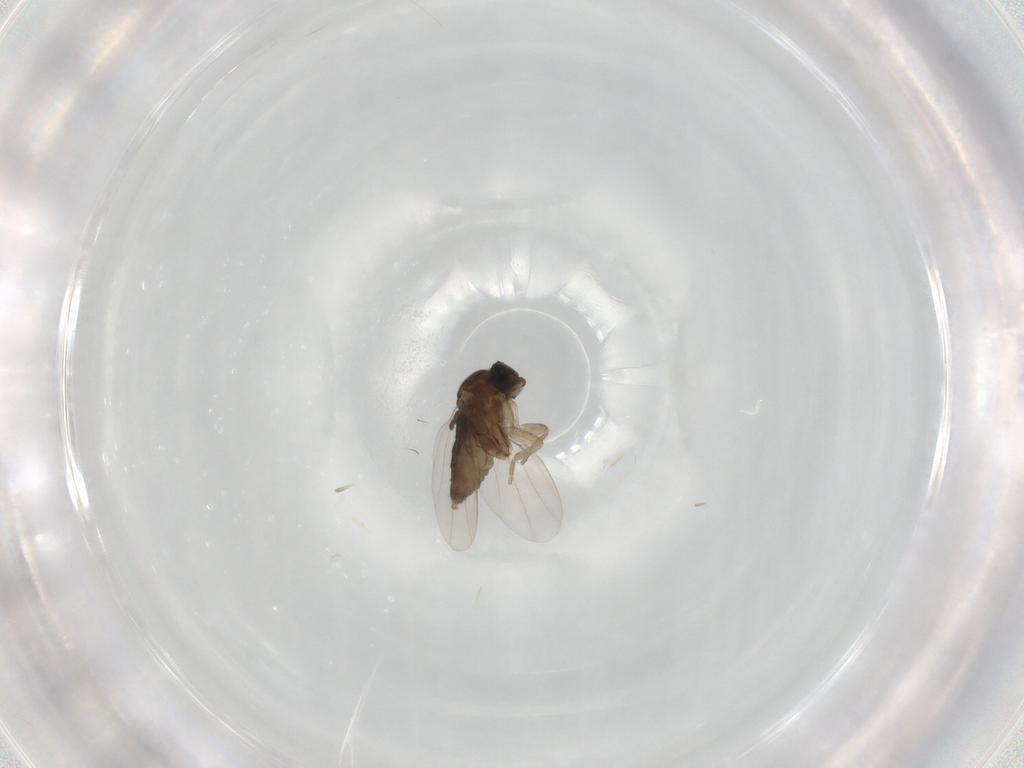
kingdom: Animalia
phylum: Arthropoda
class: Insecta
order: Diptera
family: Phoridae
